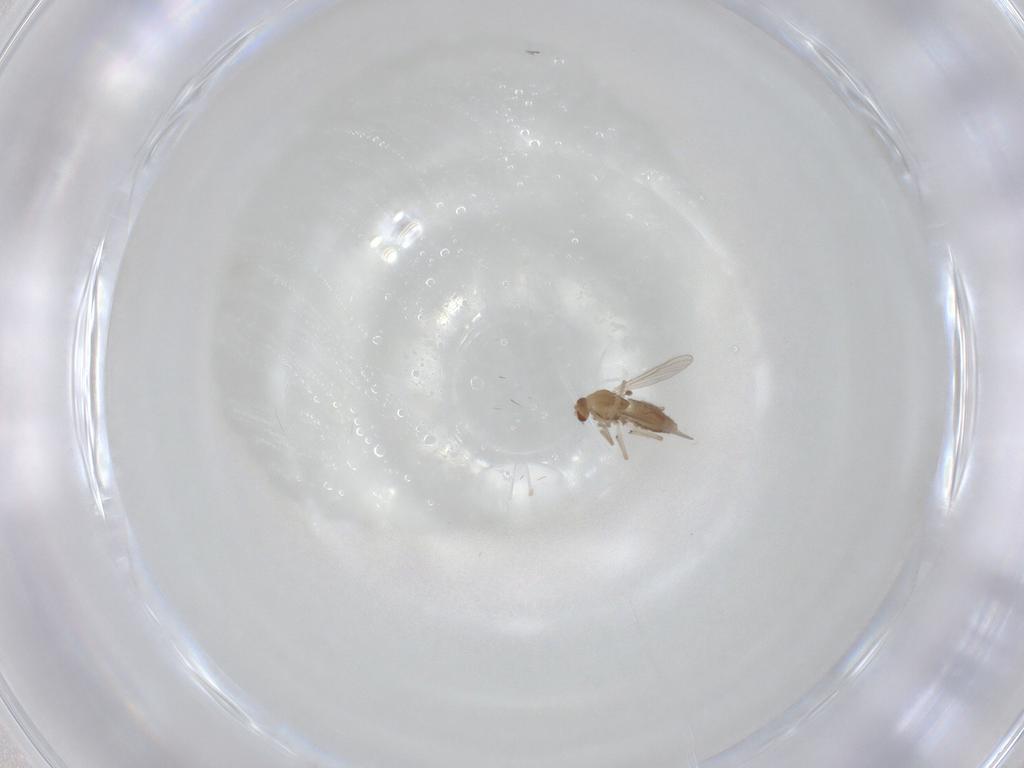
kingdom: Animalia
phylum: Arthropoda
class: Insecta
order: Diptera
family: Chironomidae
